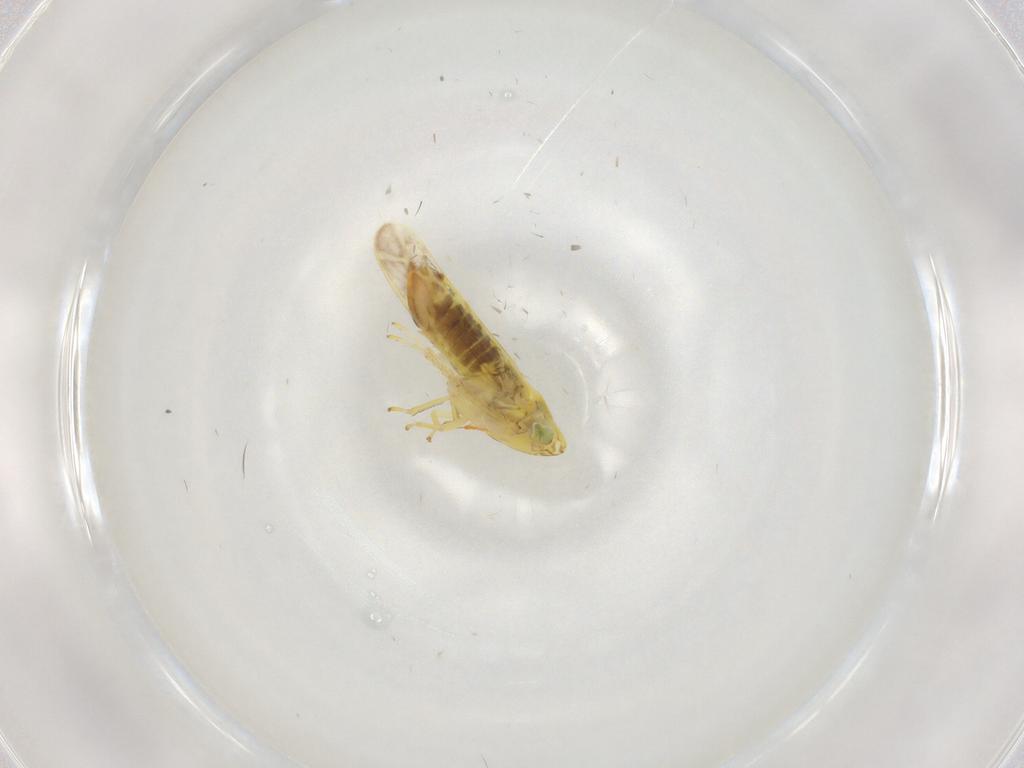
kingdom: Animalia
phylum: Arthropoda
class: Insecta
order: Hemiptera
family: Cicadellidae
